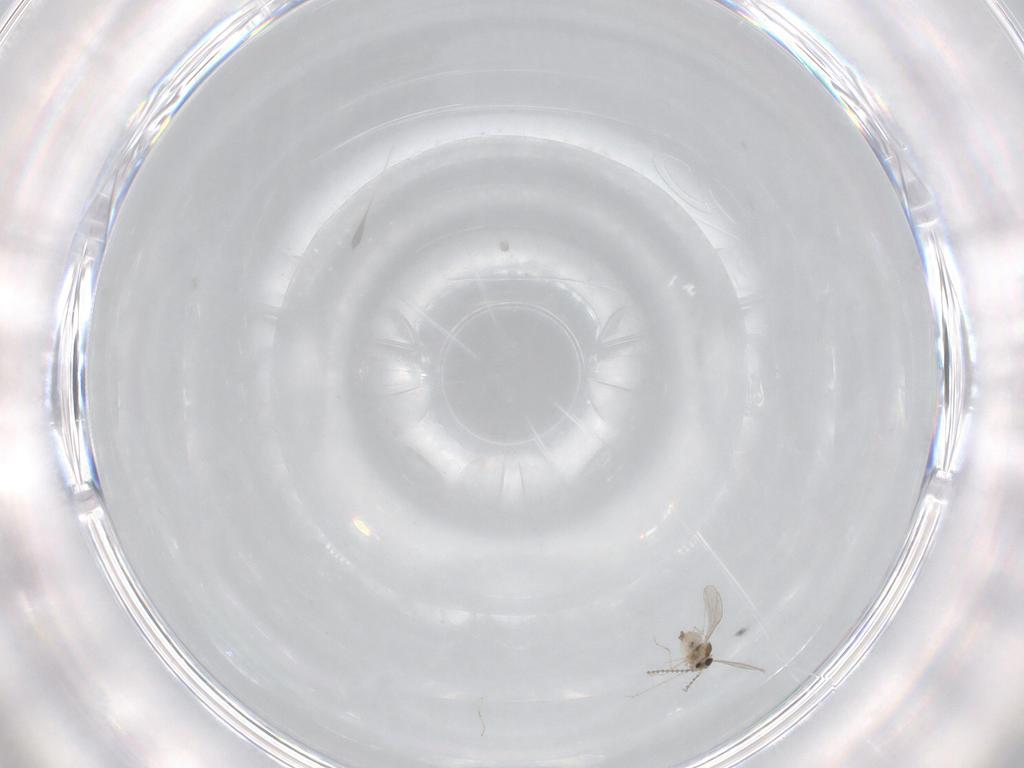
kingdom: Animalia
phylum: Arthropoda
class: Insecta
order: Diptera
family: Cecidomyiidae
